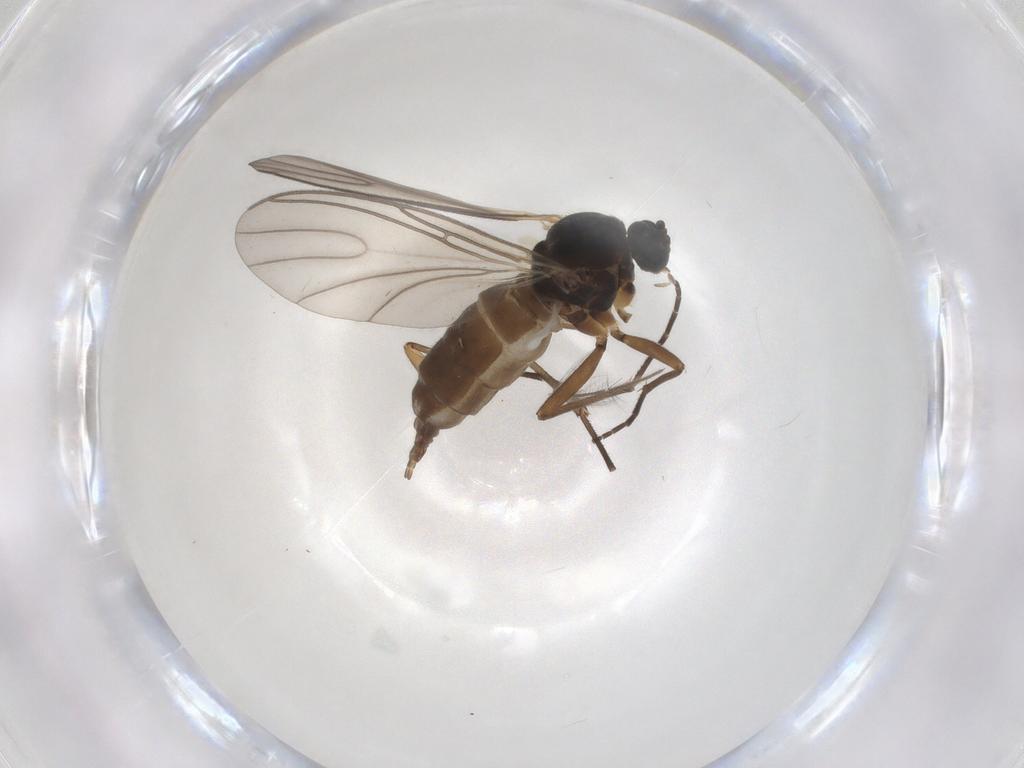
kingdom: Animalia
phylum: Arthropoda
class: Insecta
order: Diptera
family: Sciaridae
